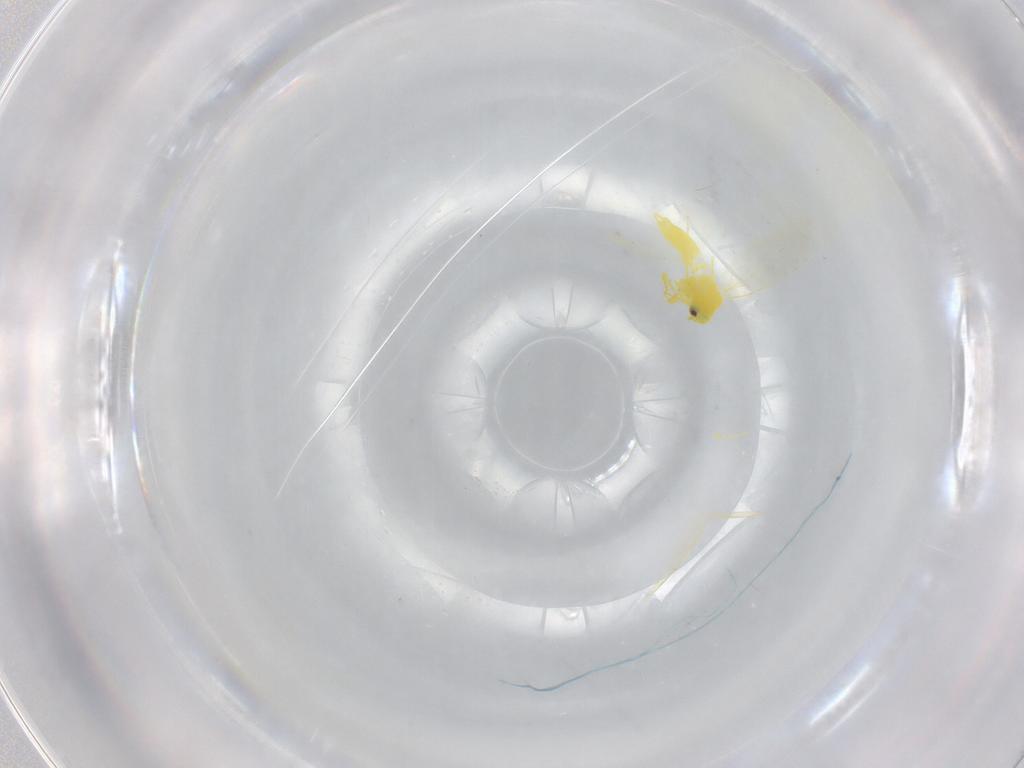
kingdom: Animalia
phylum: Arthropoda
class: Insecta
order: Hemiptera
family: Aleyrodidae
